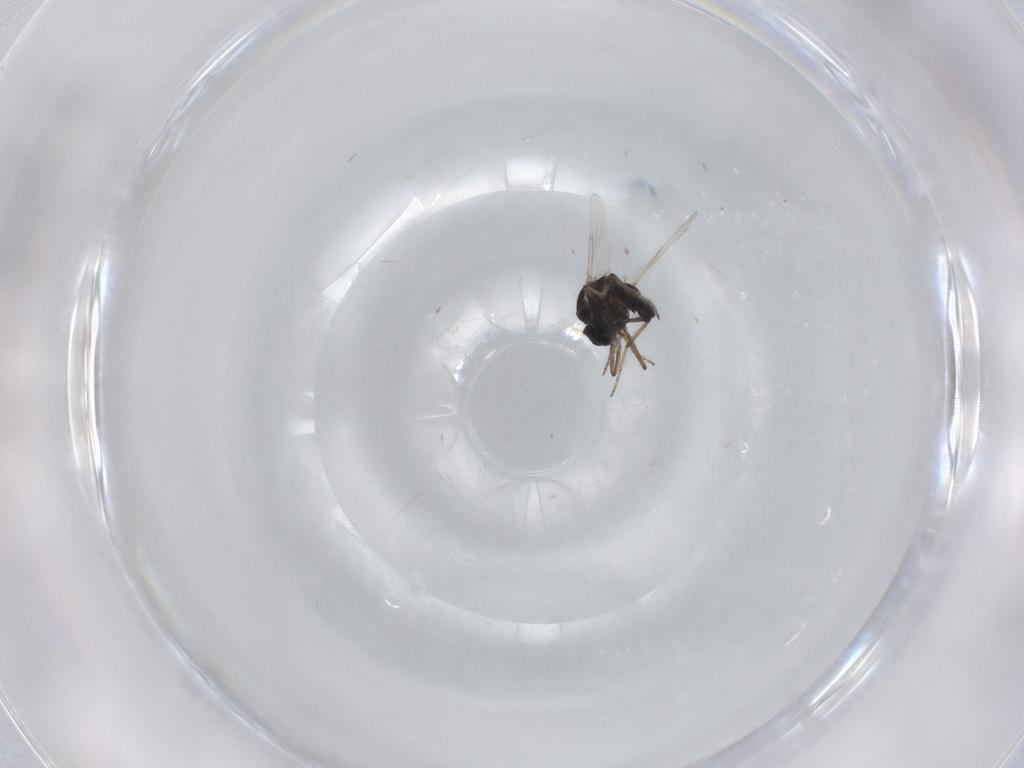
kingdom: Animalia
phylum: Arthropoda
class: Insecta
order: Diptera
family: Ceratopogonidae
